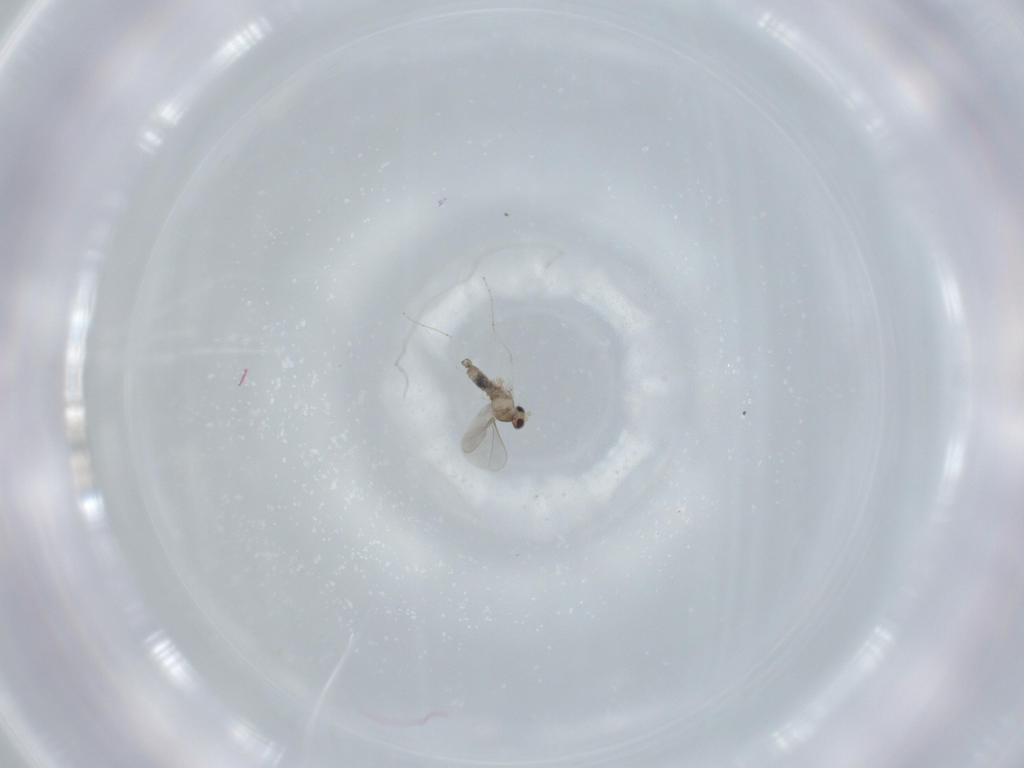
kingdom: Animalia
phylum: Arthropoda
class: Insecta
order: Diptera
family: Cecidomyiidae
